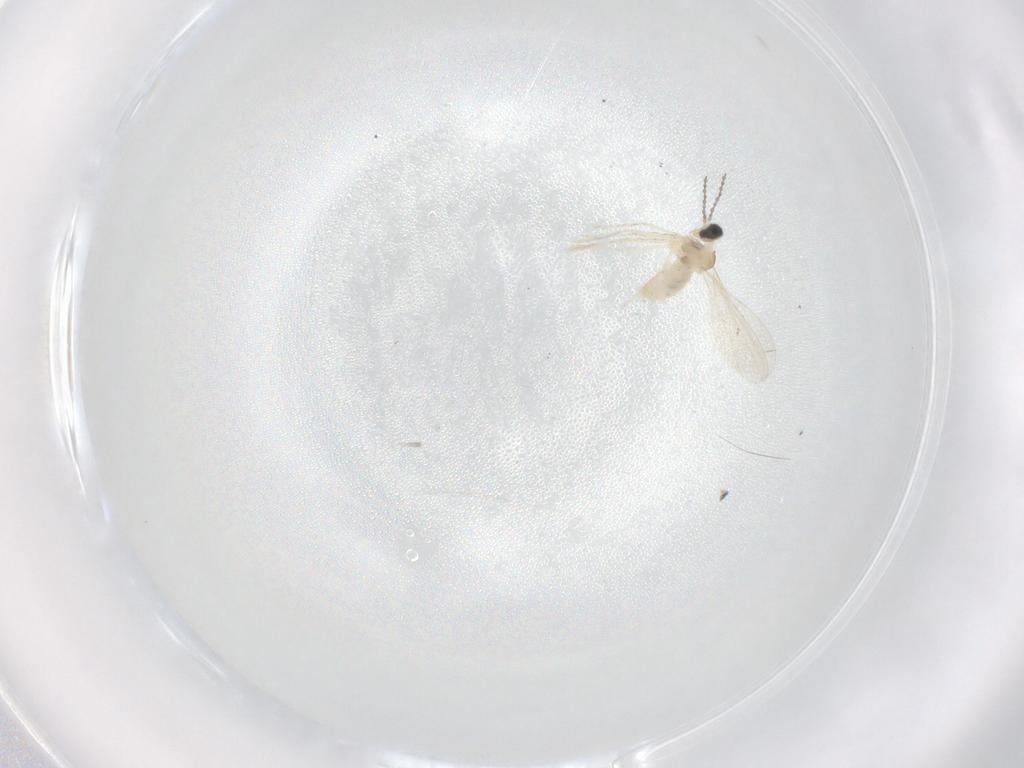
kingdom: Animalia
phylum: Arthropoda
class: Insecta
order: Diptera
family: Cecidomyiidae
